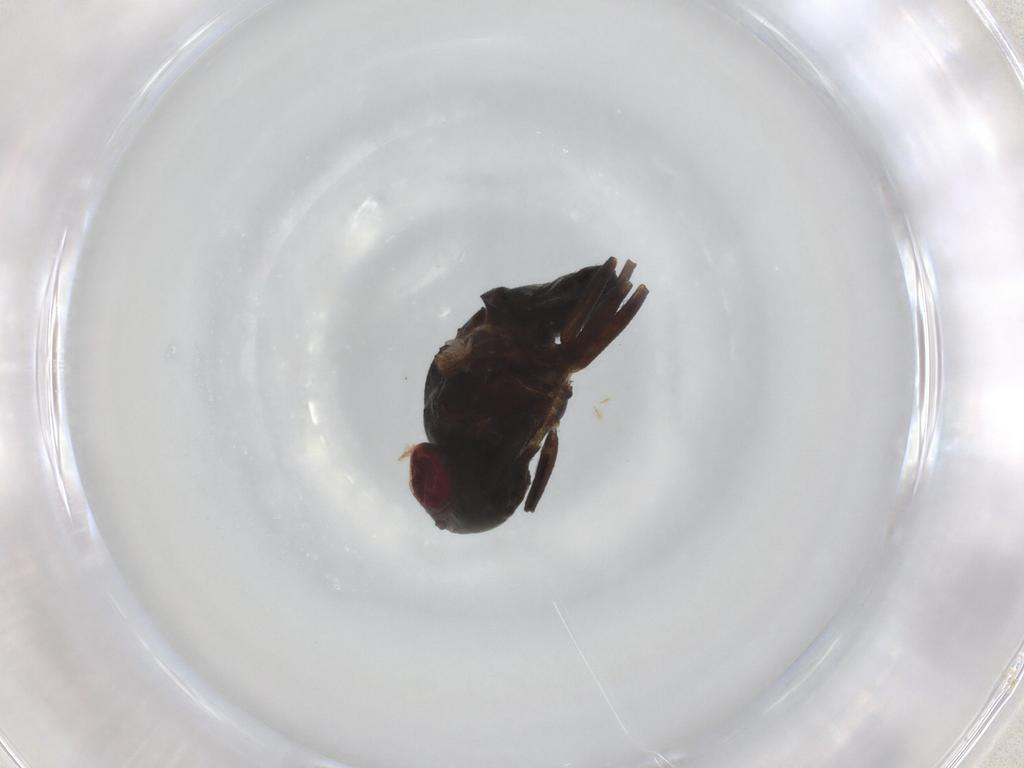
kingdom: Animalia
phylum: Arthropoda
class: Insecta
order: Diptera
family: Ephydridae
